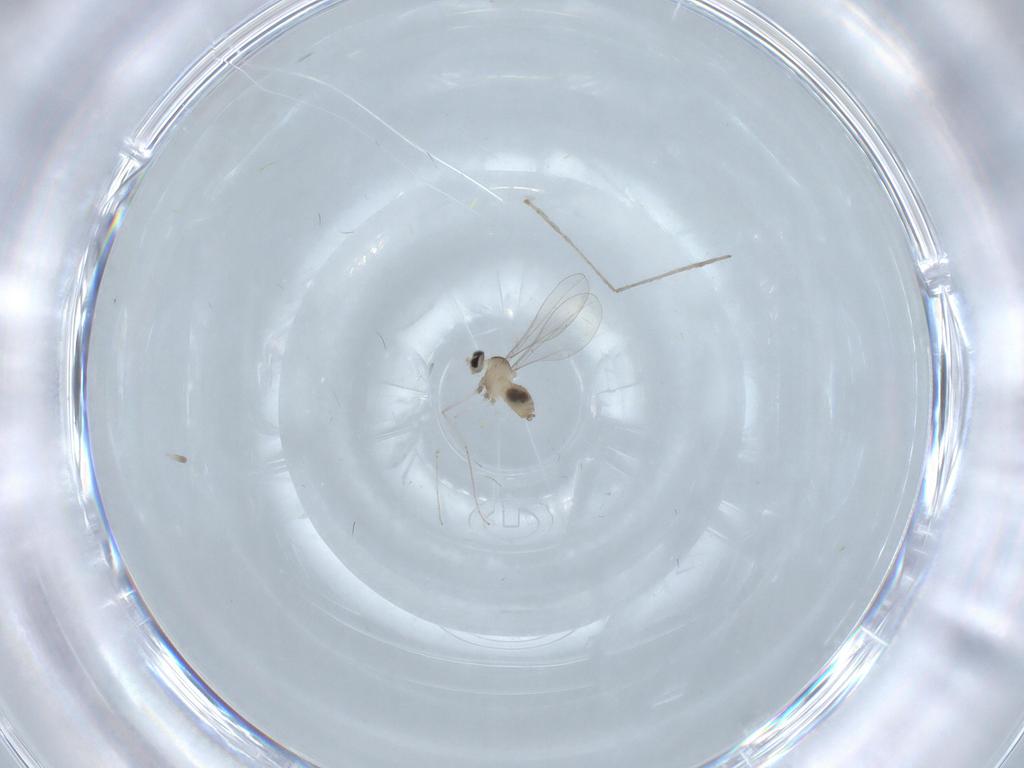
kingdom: Animalia
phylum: Arthropoda
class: Insecta
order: Diptera
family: Cecidomyiidae
